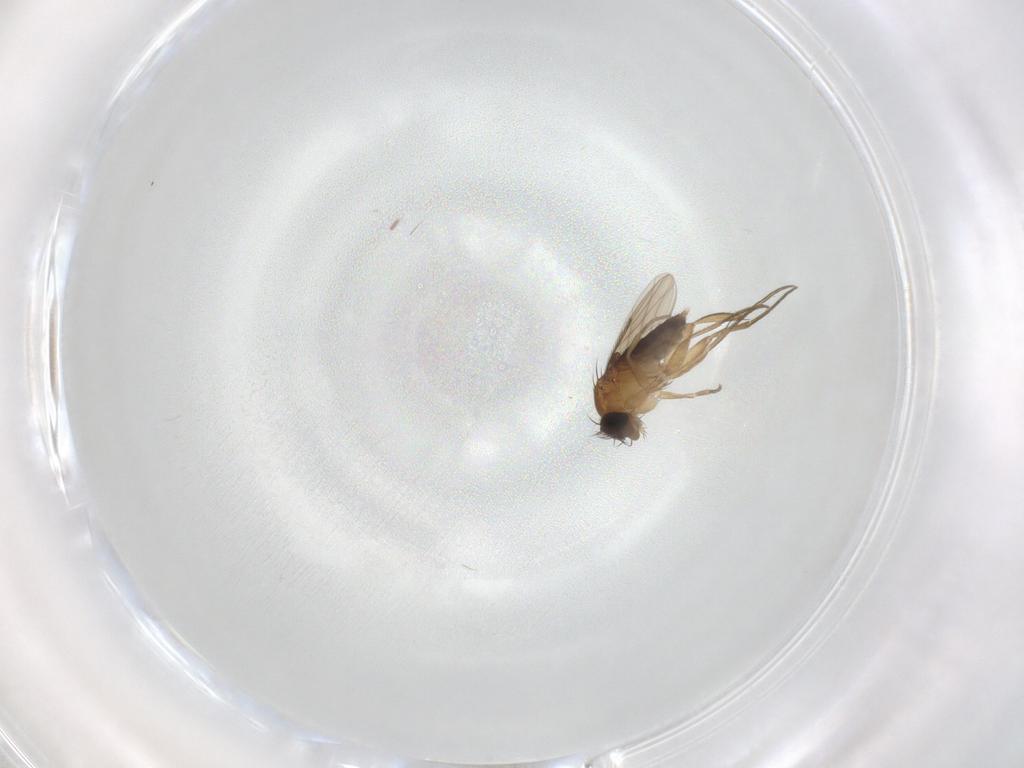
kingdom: Animalia
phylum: Arthropoda
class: Insecta
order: Diptera
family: Phoridae
